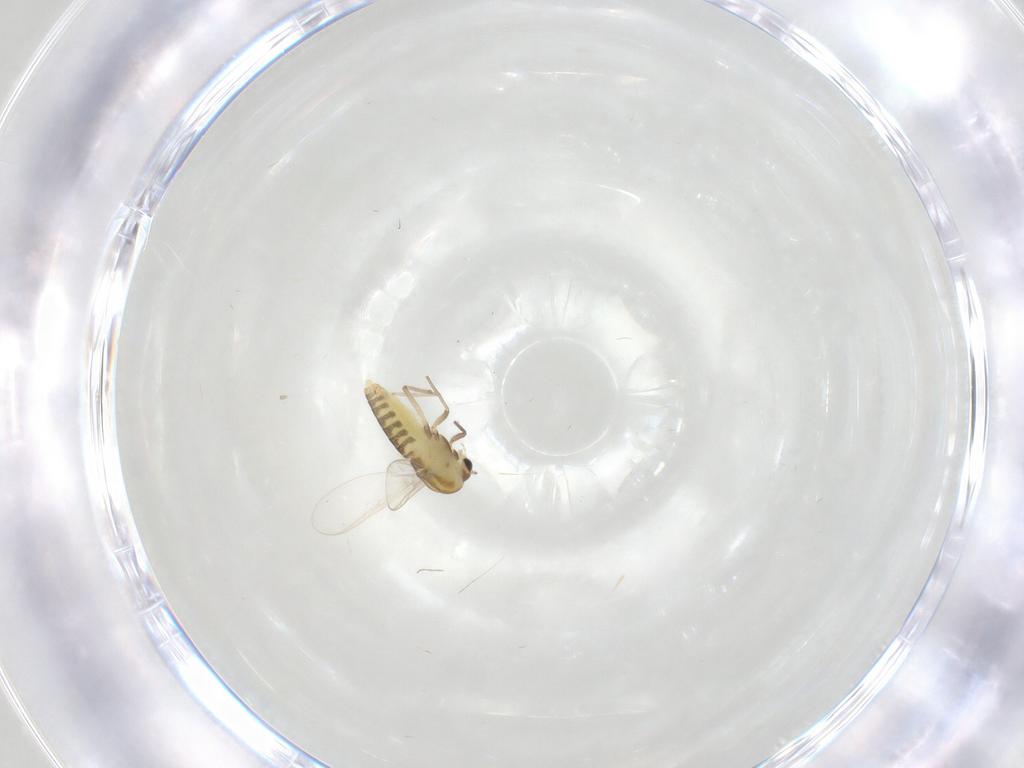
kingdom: Animalia
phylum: Arthropoda
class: Insecta
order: Diptera
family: Chironomidae
